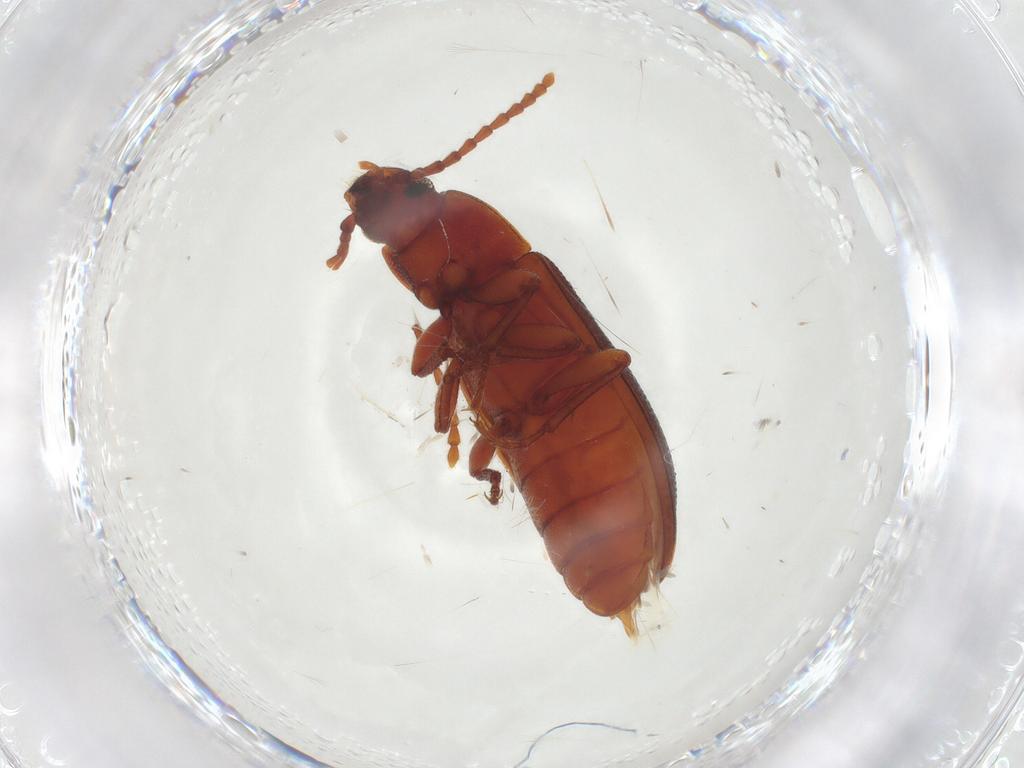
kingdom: Animalia
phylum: Arthropoda
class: Insecta
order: Coleoptera
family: Tenebrionidae
